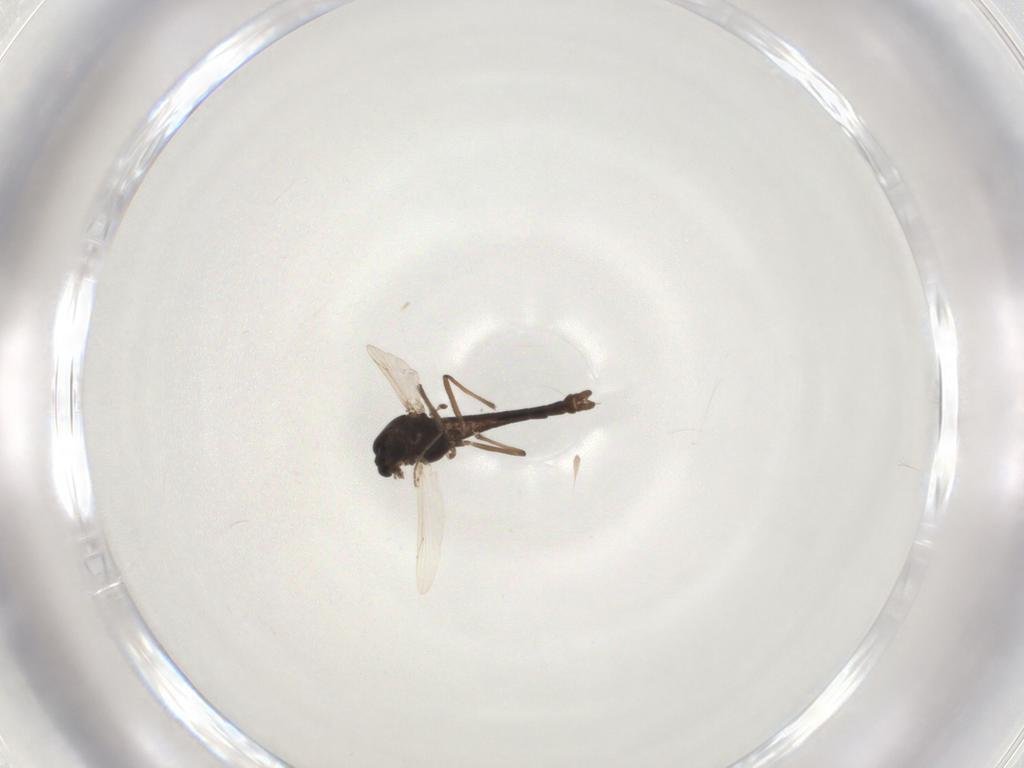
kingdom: Animalia
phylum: Arthropoda
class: Insecta
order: Diptera
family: Chironomidae
